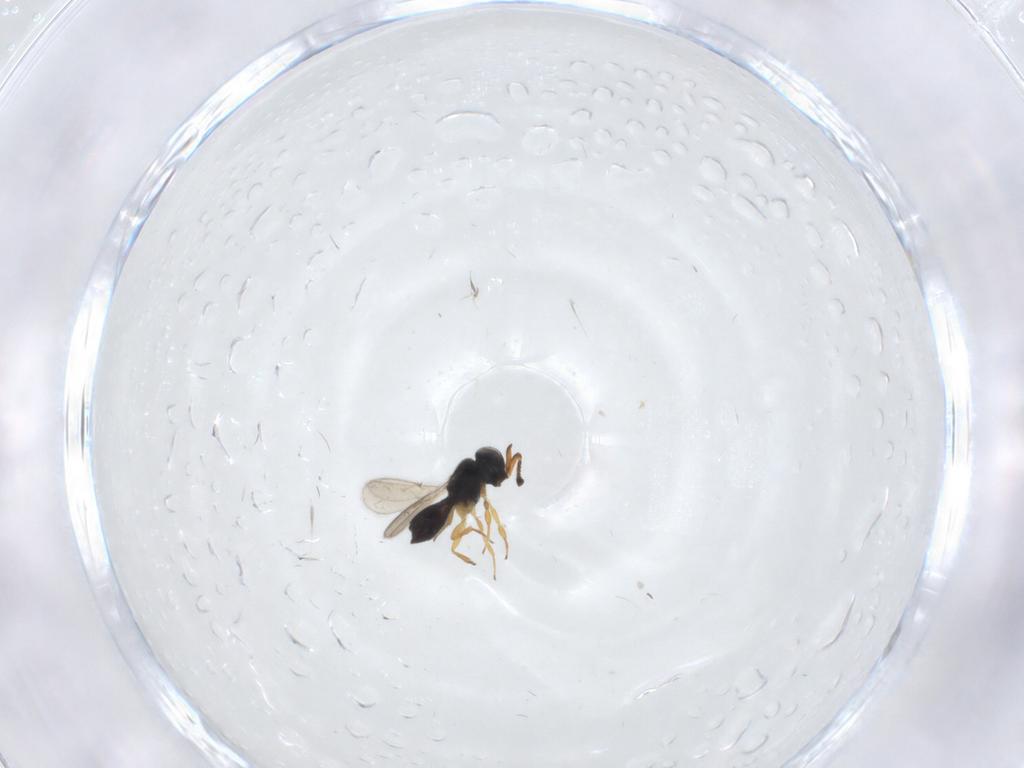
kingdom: Animalia
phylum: Arthropoda
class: Insecta
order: Hymenoptera
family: Scelionidae
